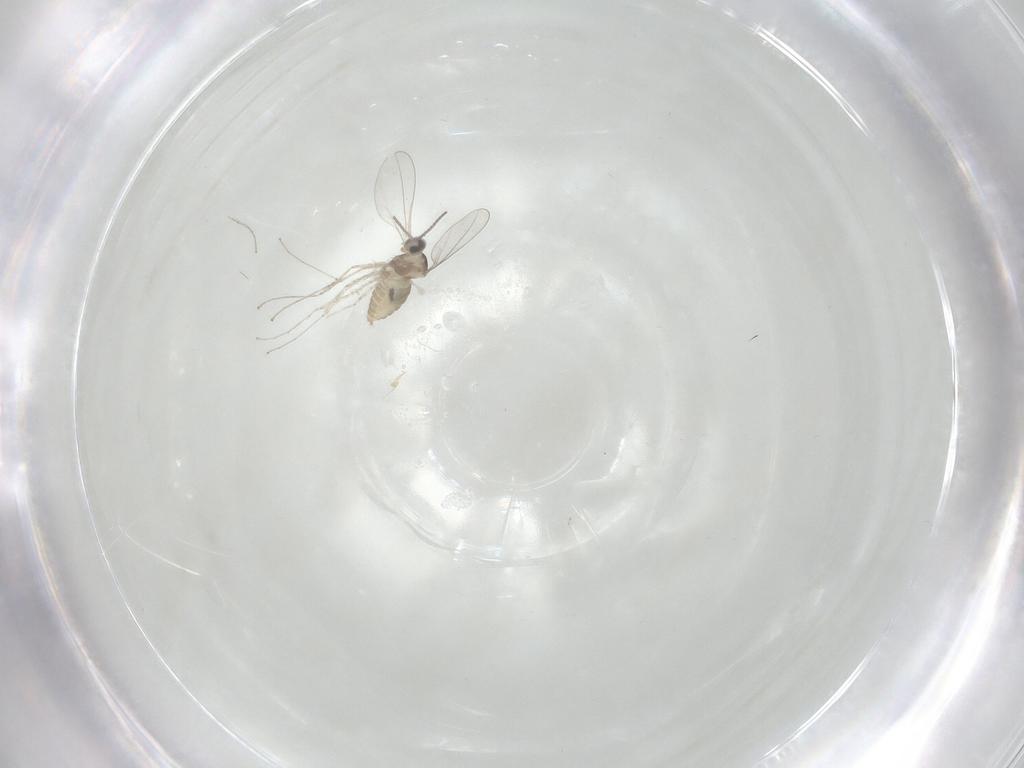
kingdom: Animalia
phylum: Arthropoda
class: Insecta
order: Diptera
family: Cecidomyiidae
